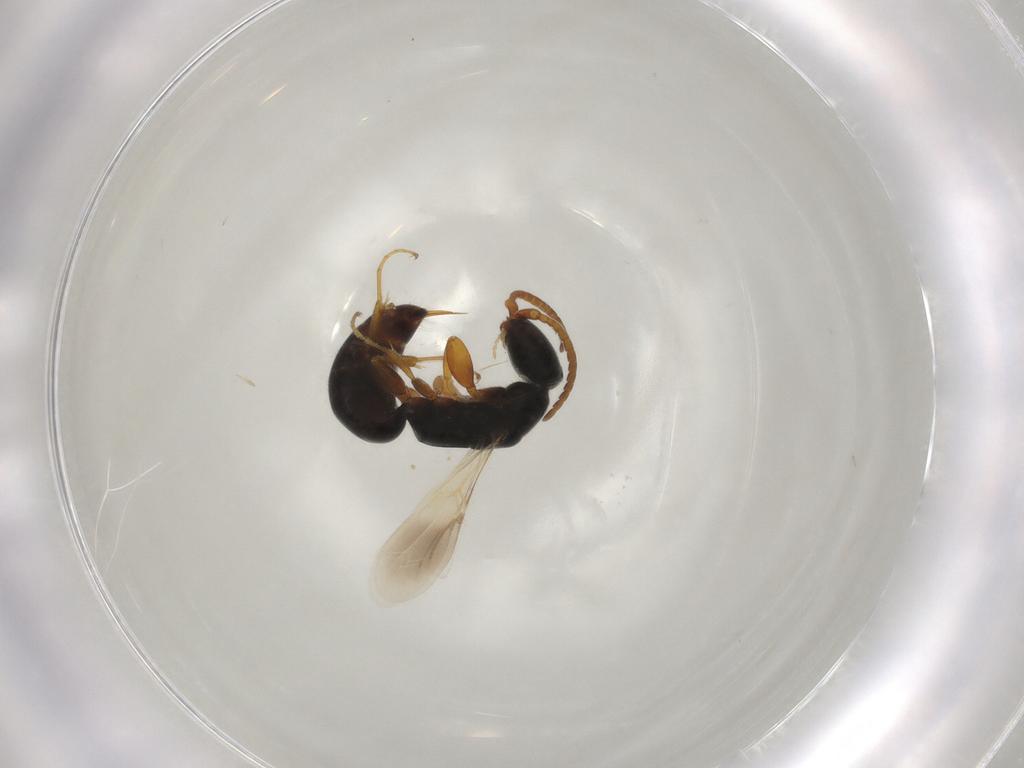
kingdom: Animalia
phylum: Arthropoda
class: Insecta
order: Hymenoptera
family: Bethylidae
